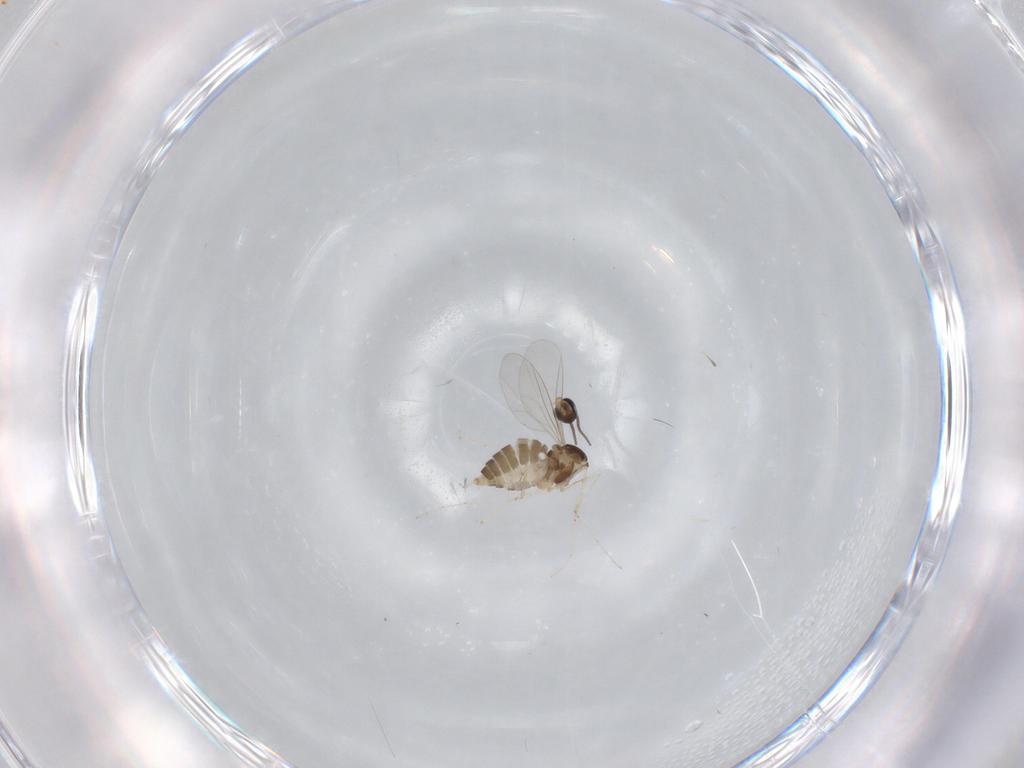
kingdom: Animalia
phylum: Arthropoda
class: Insecta
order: Diptera
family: Cecidomyiidae
